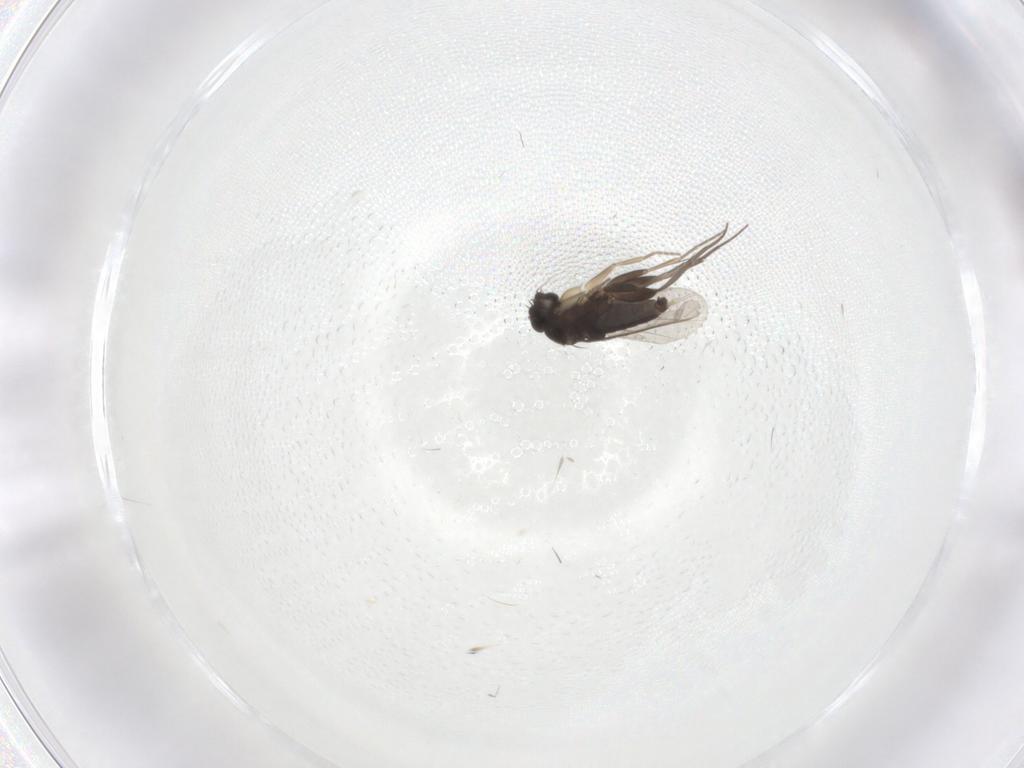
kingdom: Animalia
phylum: Arthropoda
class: Insecta
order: Diptera
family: Phoridae
